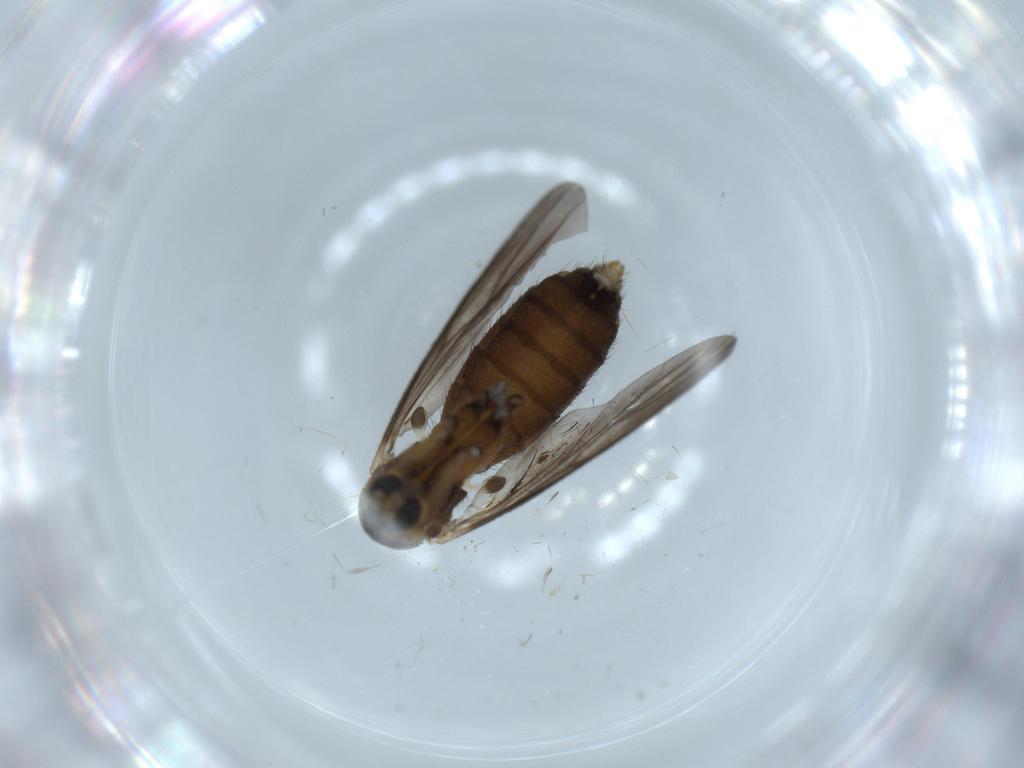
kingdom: Animalia
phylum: Arthropoda
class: Insecta
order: Diptera
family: Mycetophilidae
